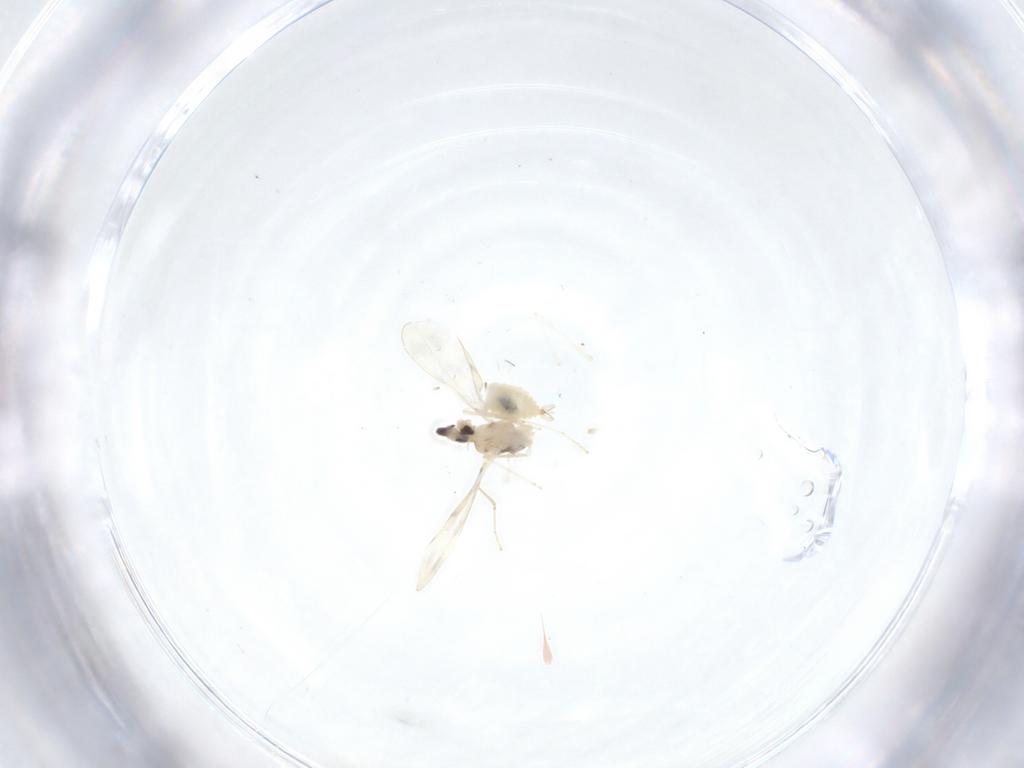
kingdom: Animalia
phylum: Arthropoda
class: Insecta
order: Diptera
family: Cecidomyiidae
